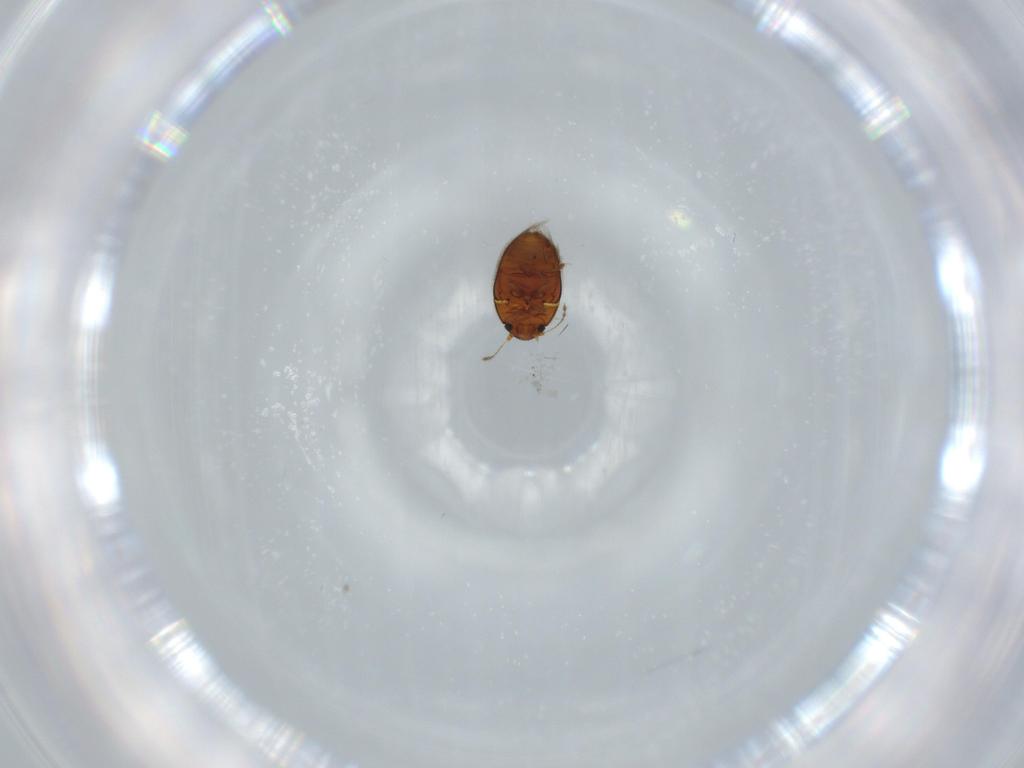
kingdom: Animalia
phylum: Arthropoda
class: Insecta
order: Coleoptera
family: Ptiliidae
